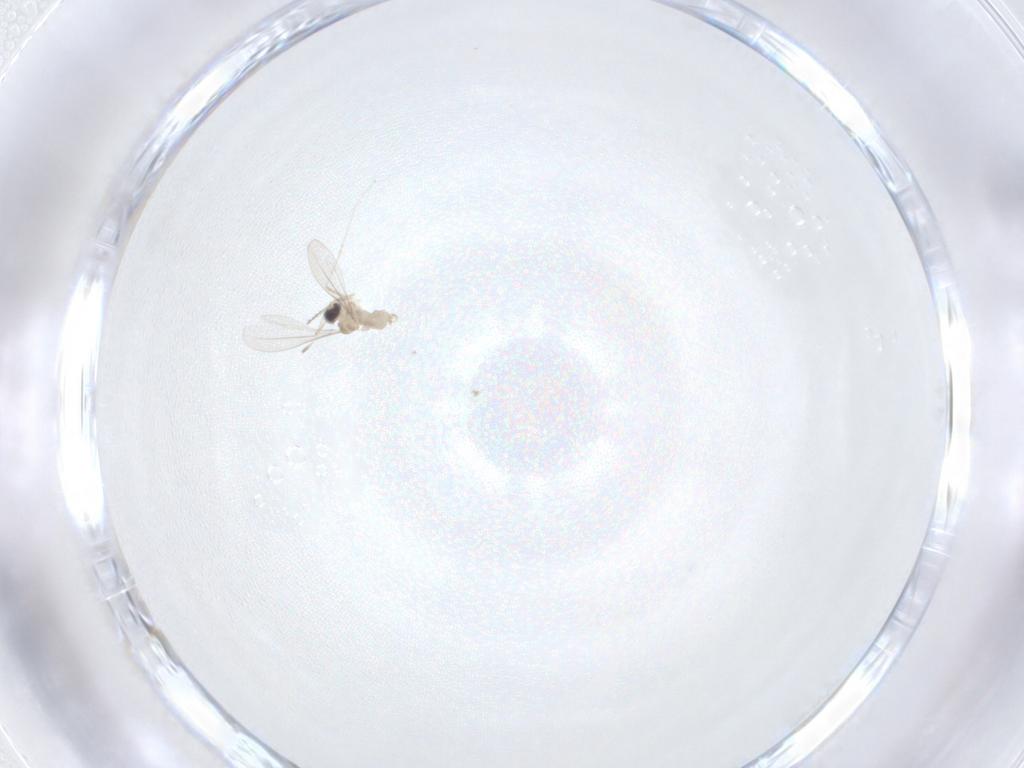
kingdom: Animalia
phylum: Arthropoda
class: Insecta
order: Diptera
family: Cecidomyiidae
